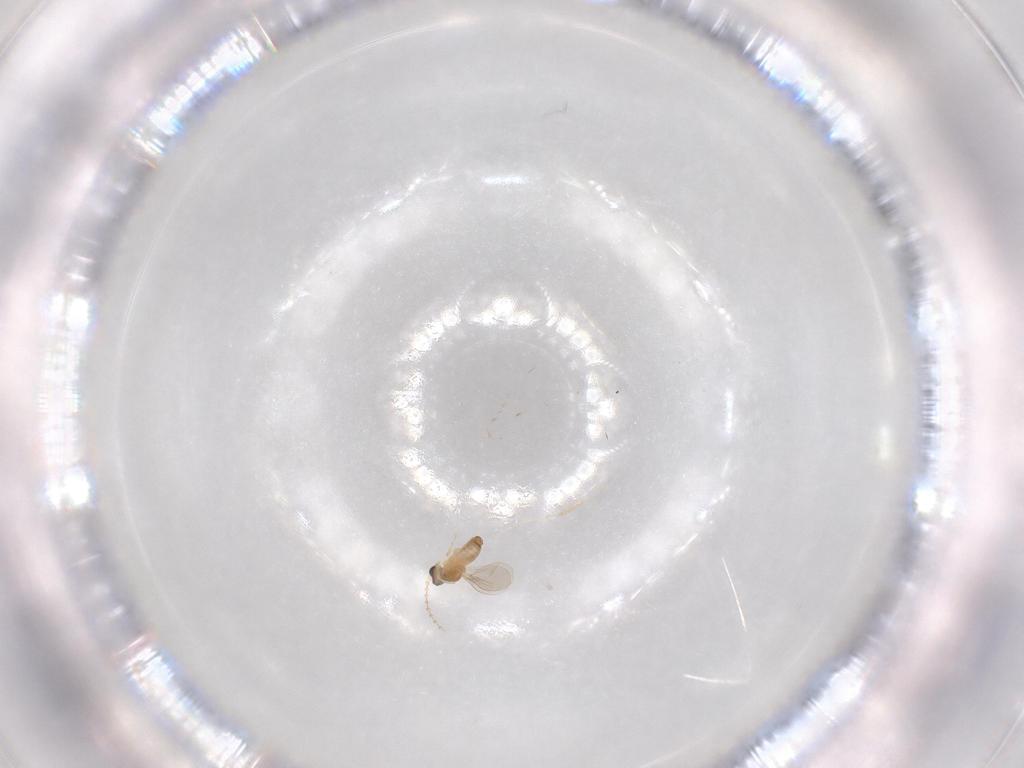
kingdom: Animalia
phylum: Arthropoda
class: Insecta
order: Diptera
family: Cecidomyiidae
